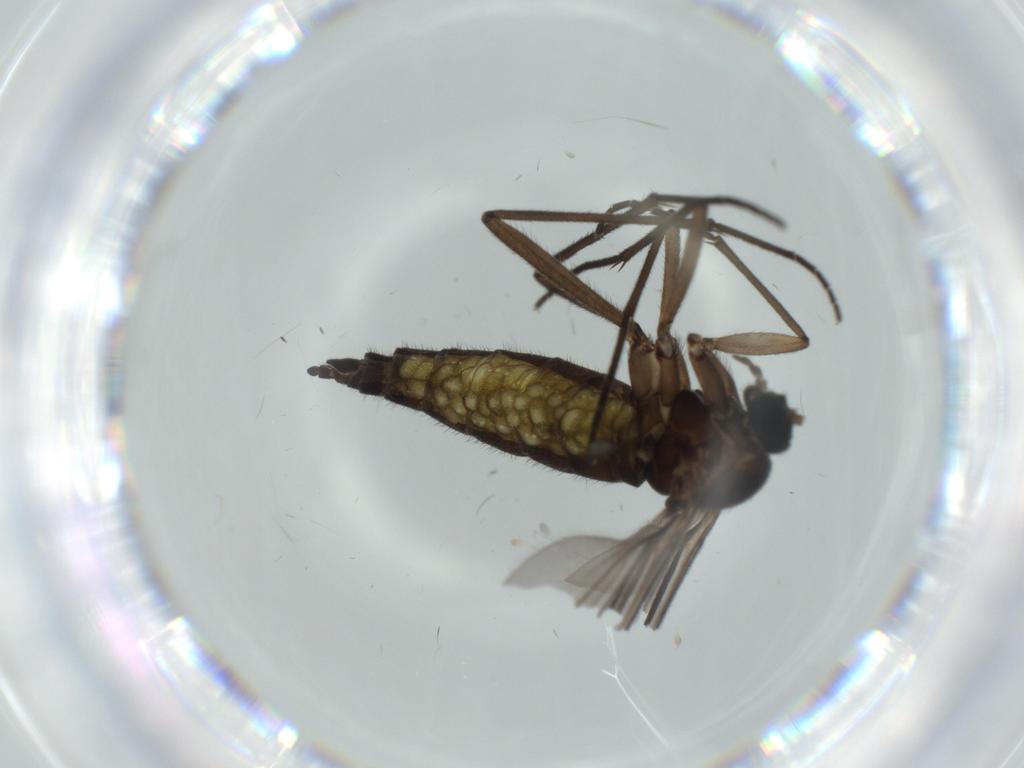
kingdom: Animalia
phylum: Arthropoda
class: Insecta
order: Diptera
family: Sciaridae
